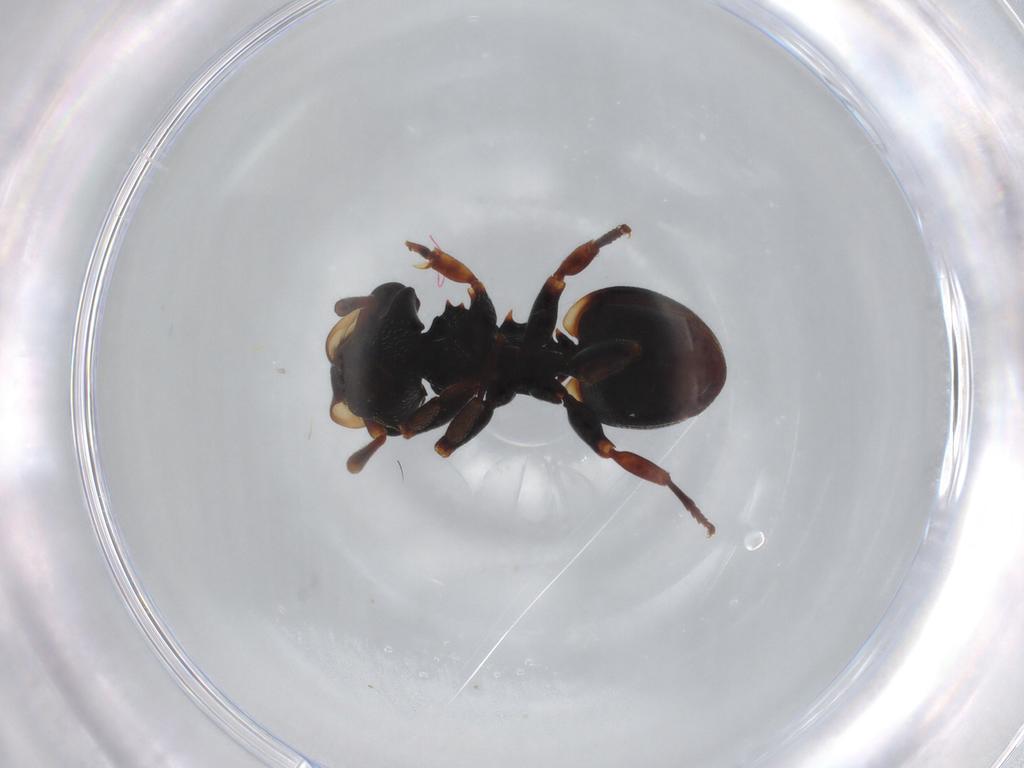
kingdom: Animalia
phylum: Arthropoda
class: Insecta
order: Hymenoptera
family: Formicidae
